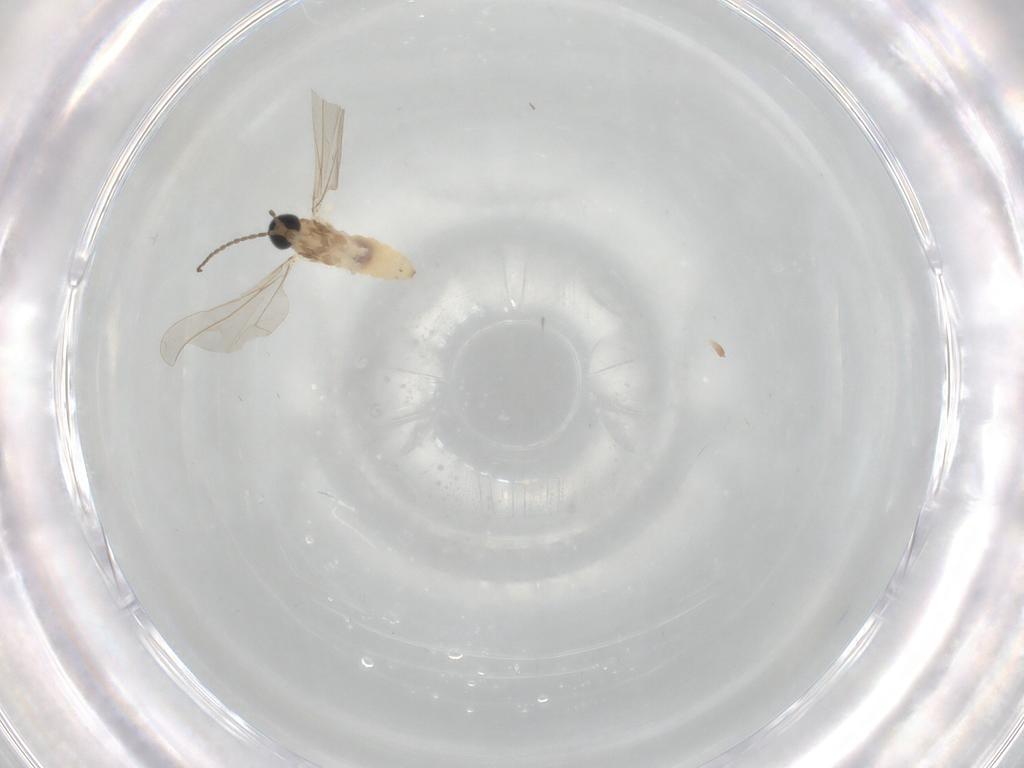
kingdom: Animalia
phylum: Arthropoda
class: Insecta
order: Diptera
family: Cecidomyiidae
